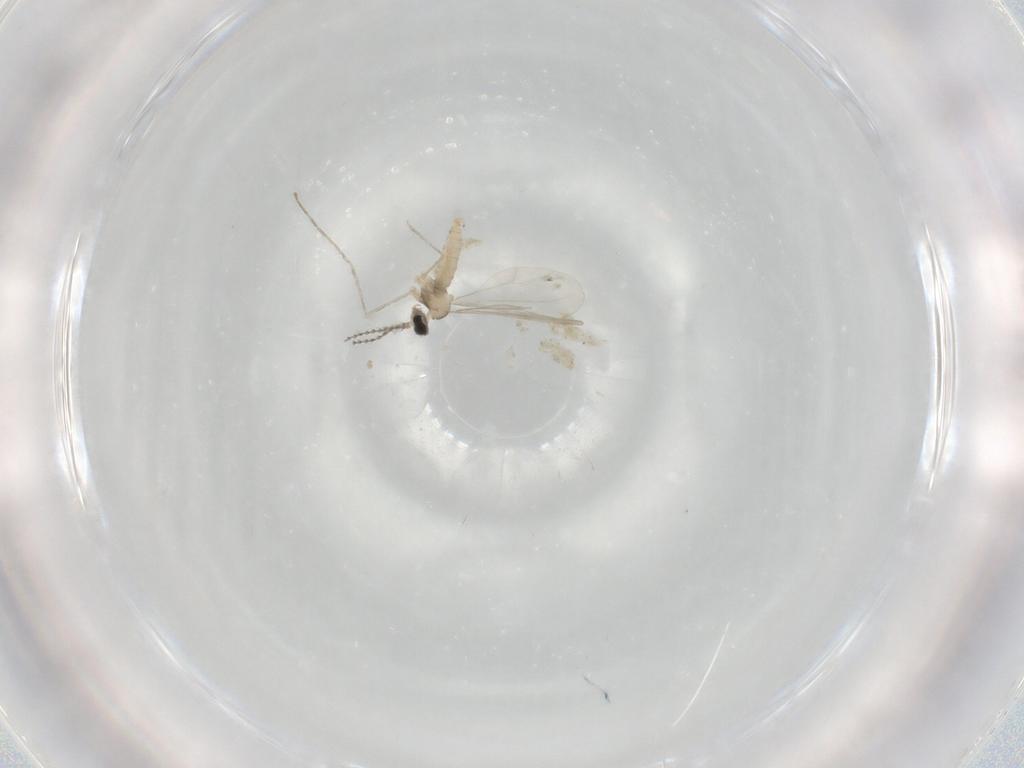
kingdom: Animalia
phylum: Arthropoda
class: Insecta
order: Diptera
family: Cecidomyiidae
